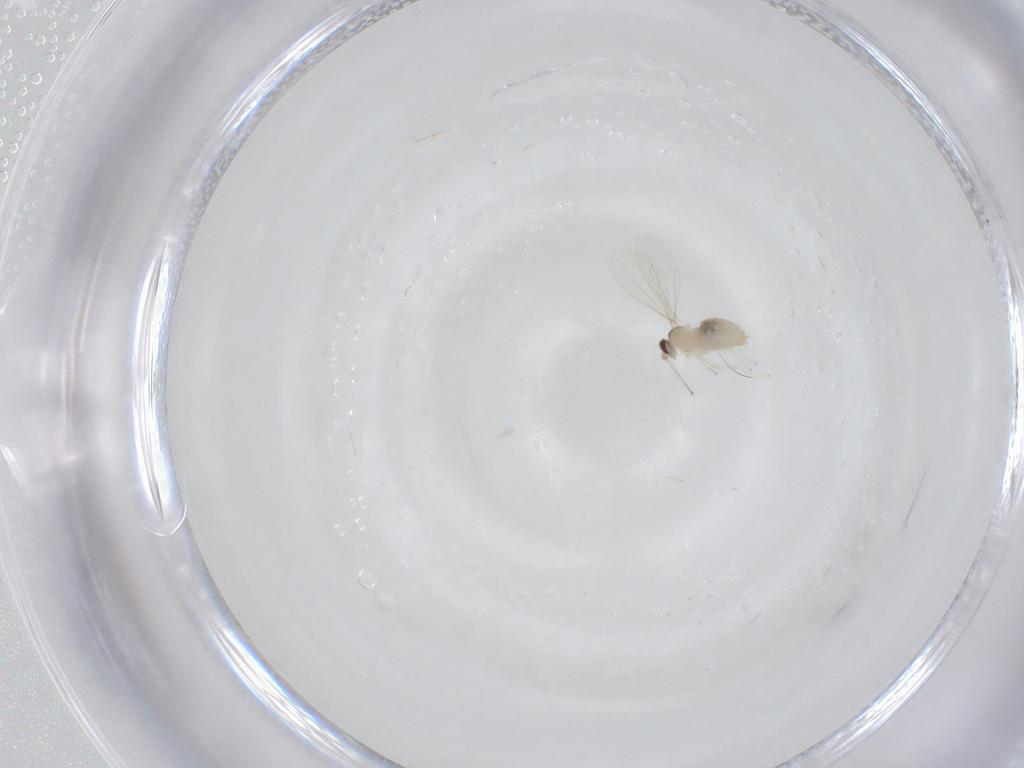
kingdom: Animalia
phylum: Arthropoda
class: Insecta
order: Diptera
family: Cecidomyiidae
